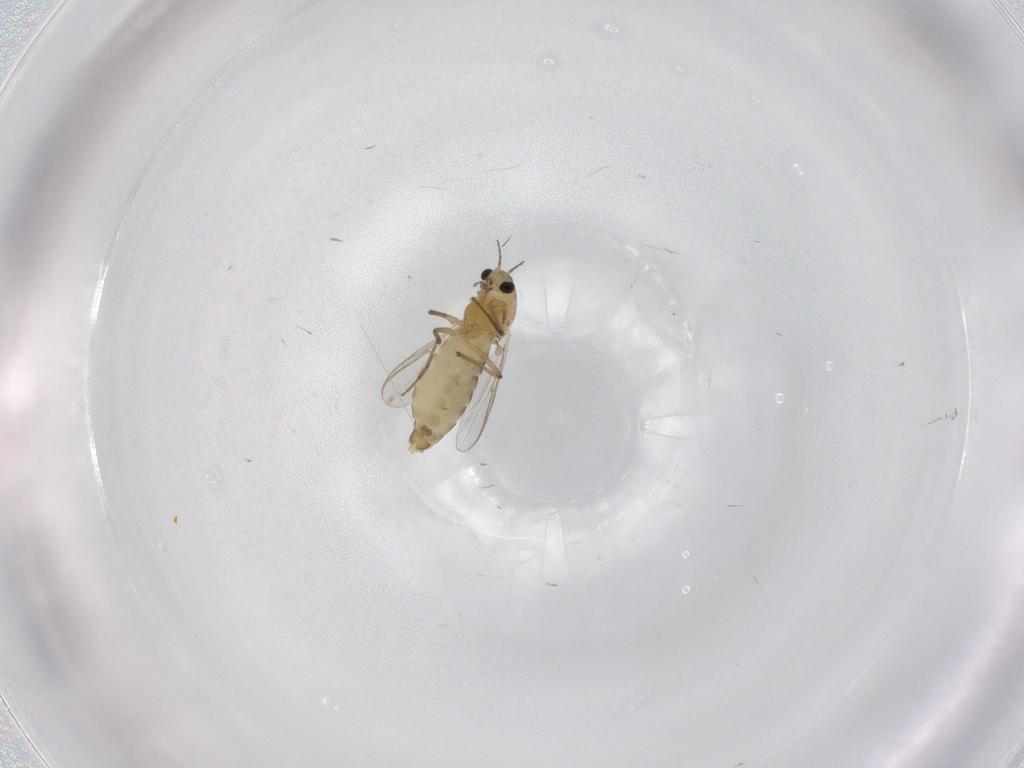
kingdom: Animalia
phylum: Arthropoda
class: Insecta
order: Diptera
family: Chironomidae
